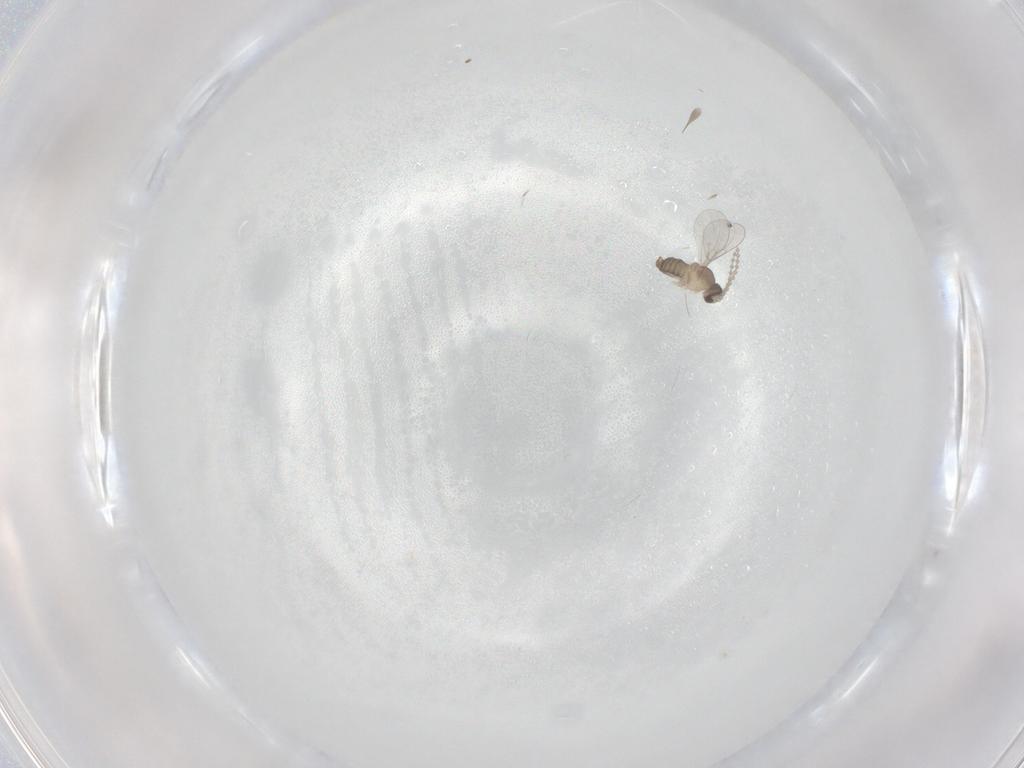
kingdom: Animalia
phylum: Arthropoda
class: Insecta
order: Diptera
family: Cecidomyiidae
